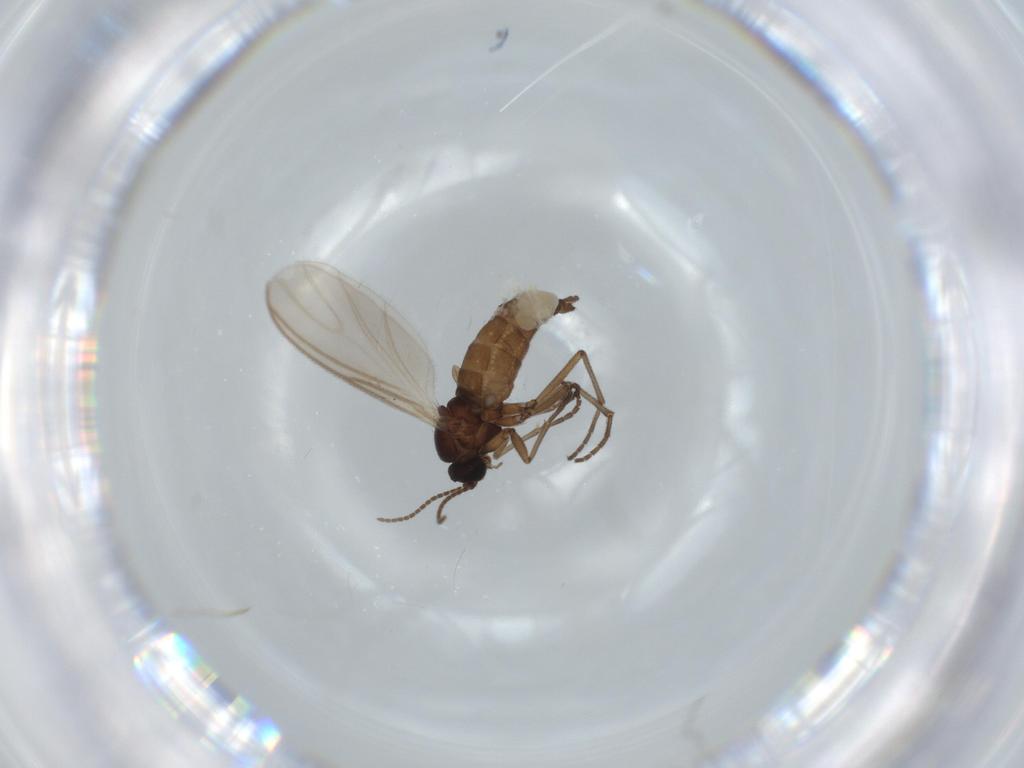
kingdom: Animalia
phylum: Arthropoda
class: Insecta
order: Diptera
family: Sciaridae
